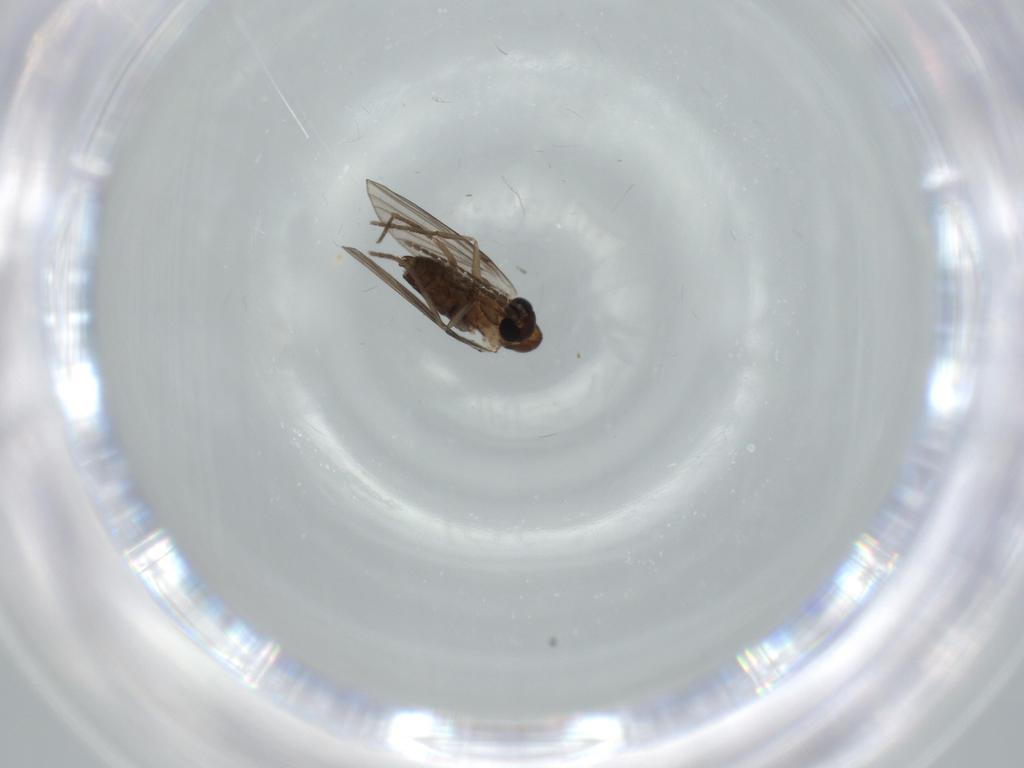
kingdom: Animalia
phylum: Arthropoda
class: Insecta
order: Diptera
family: Psychodidae
